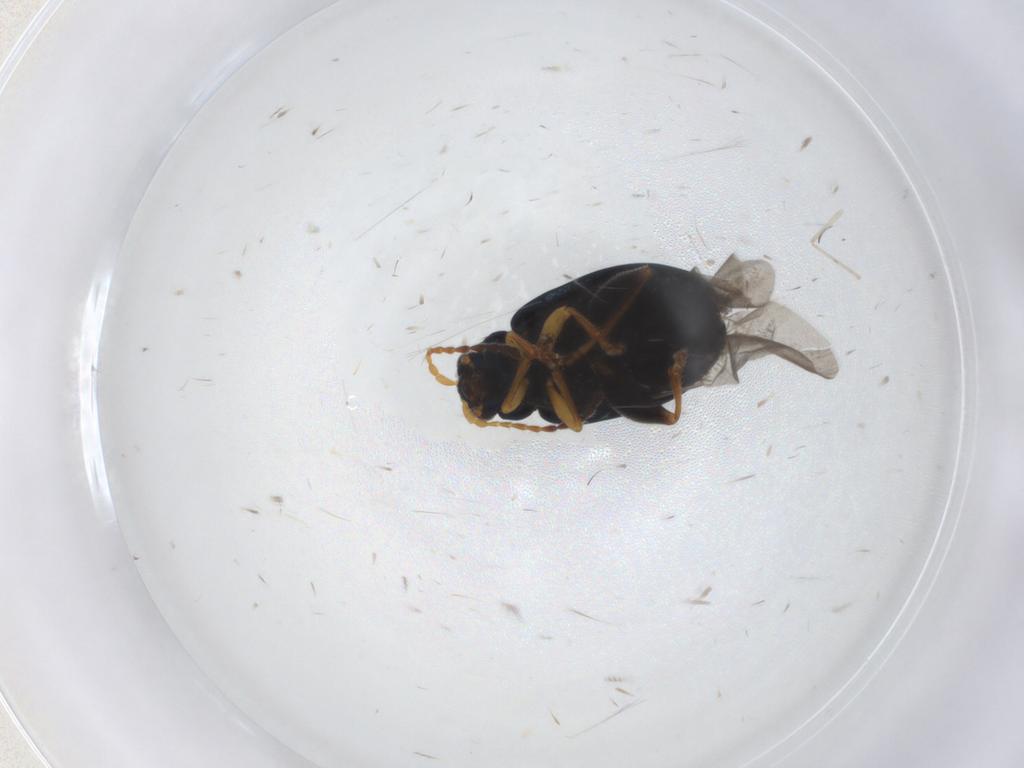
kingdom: Animalia
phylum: Arthropoda
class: Insecta
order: Coleoptera
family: Chrysomelidae
